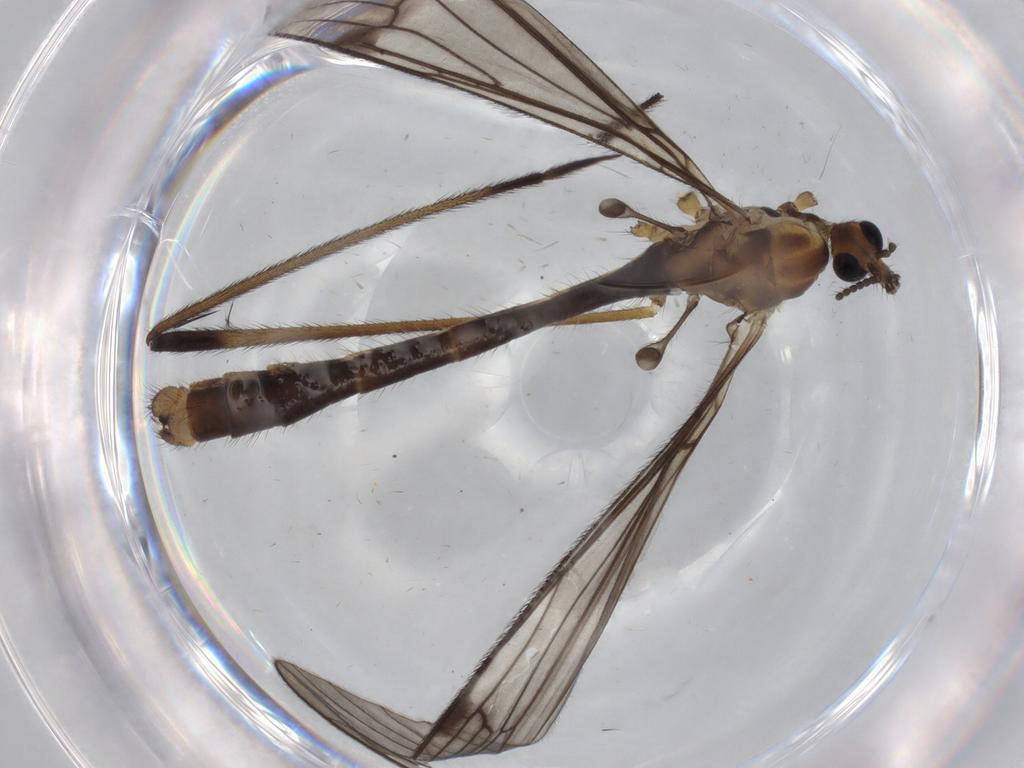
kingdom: Animalia
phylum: Arthropoda
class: Insecta
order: Diptera
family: Limoniidae
